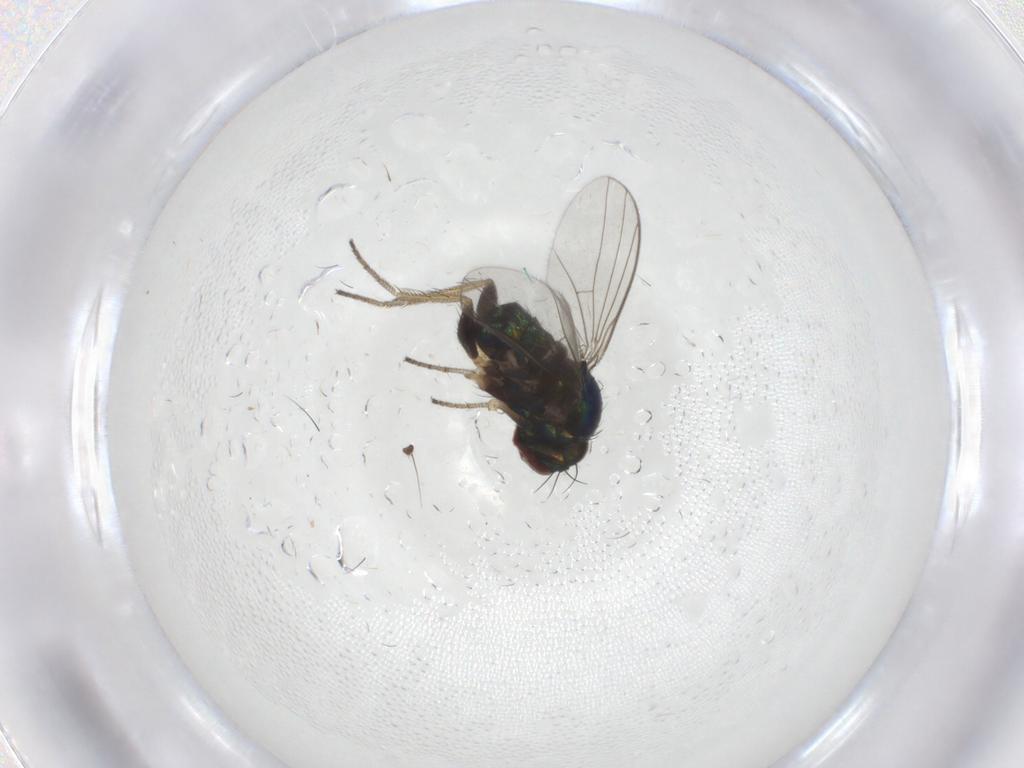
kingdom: Animalia
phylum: Arthropoda
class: Insecta
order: Diptera
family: Dolichopodidae
